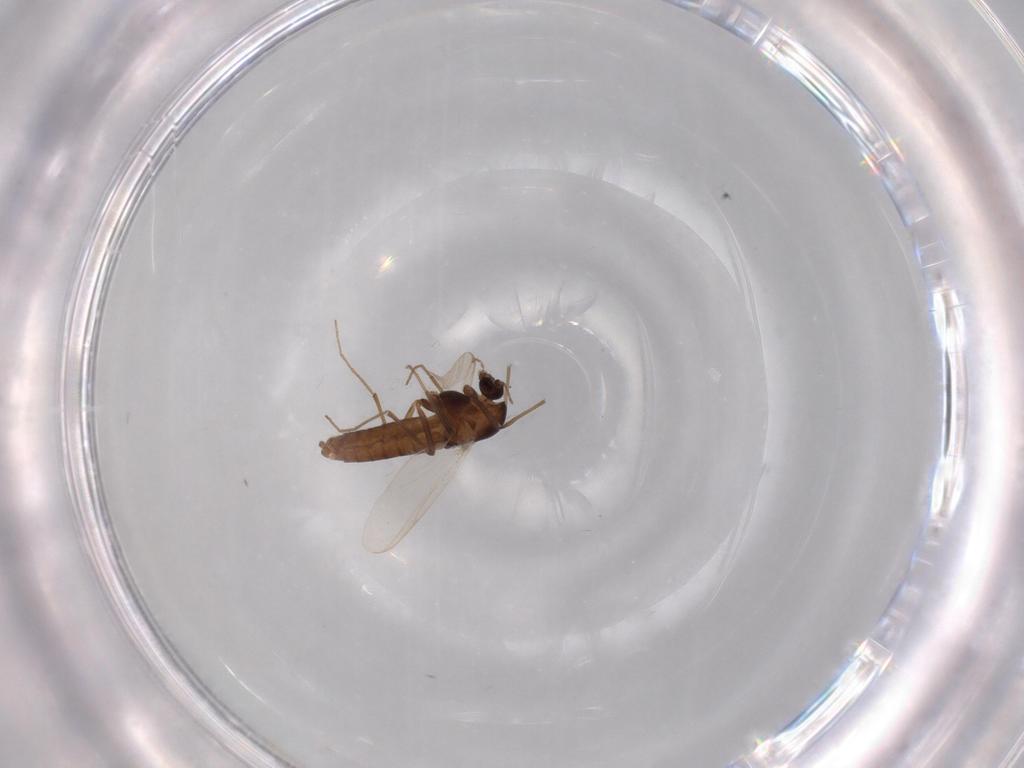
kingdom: Animalia
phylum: Arthropoda
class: Insecta
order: Diptera
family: Chironomidae
